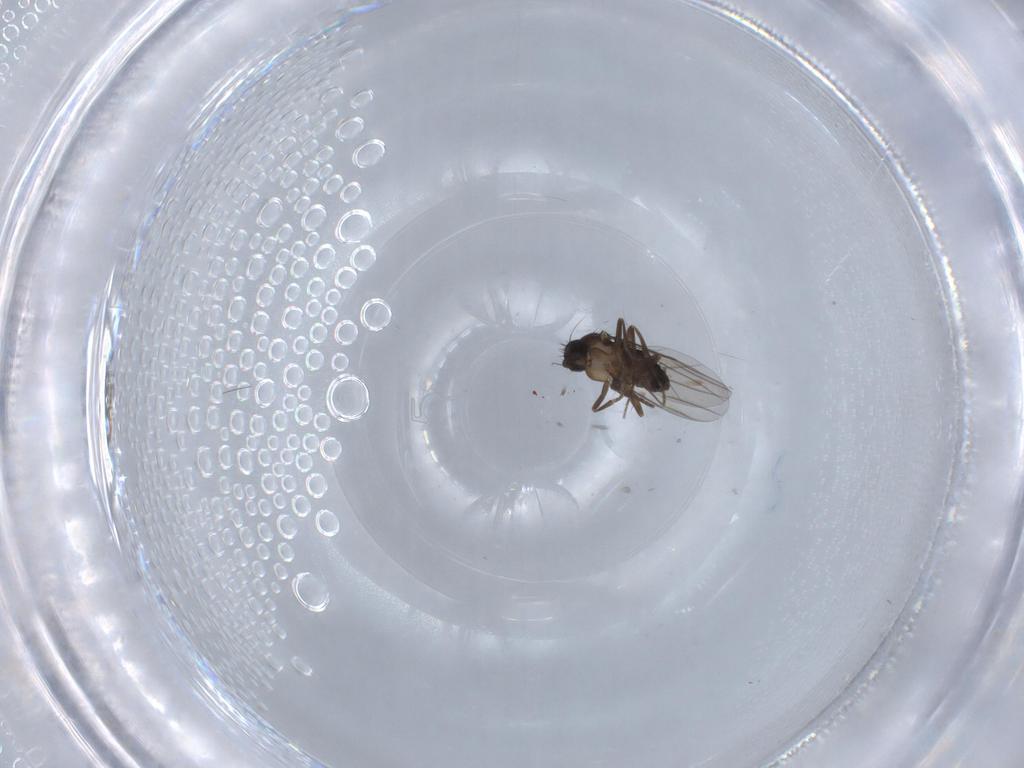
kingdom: Animalia
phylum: Arthropoda
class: Insecta
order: Diptera
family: Phoridae
